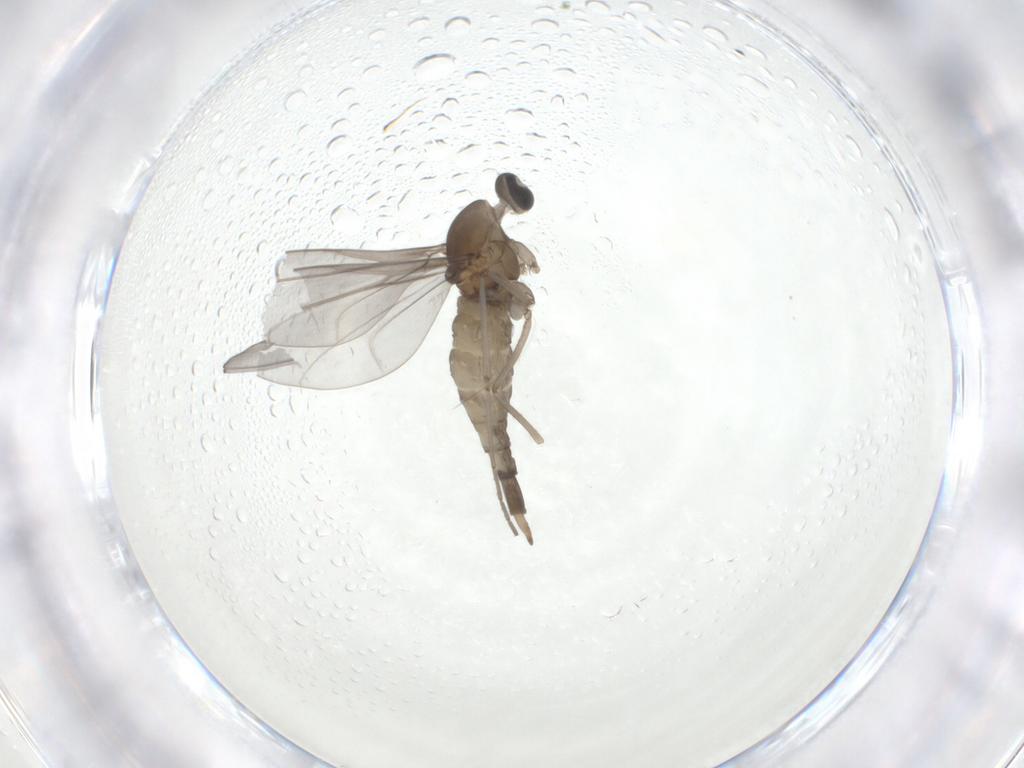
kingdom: Animalia
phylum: Arthropoda
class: Insecta
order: Diptera
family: Cecidomyiidae
